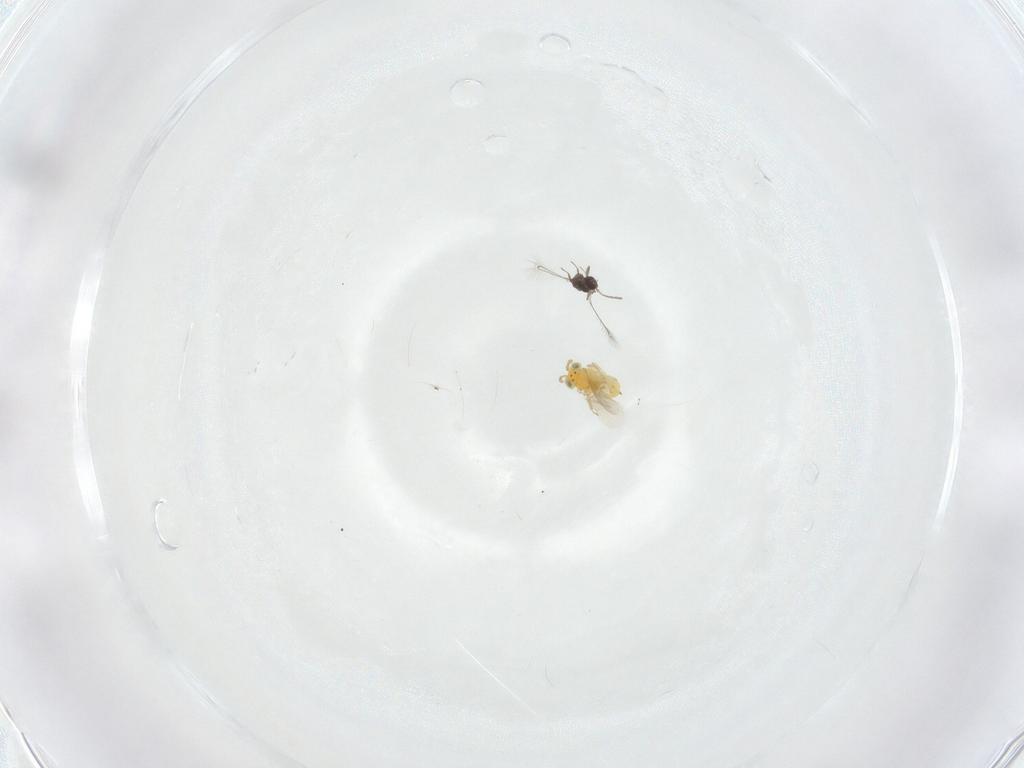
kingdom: Animalia
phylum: Arthropoda
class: Insecta
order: Hymenoptera
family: Aphelinidae
